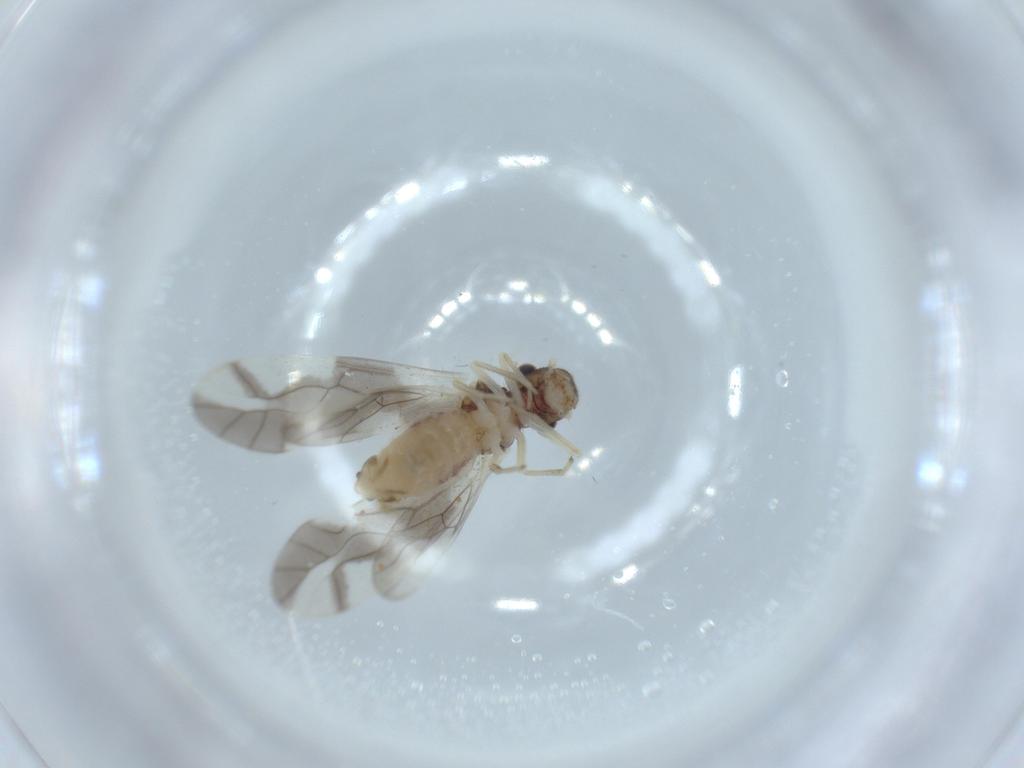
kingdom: Animalia
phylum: Arthropoda
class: Insecta
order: Psocodea
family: Caeciliusidae
